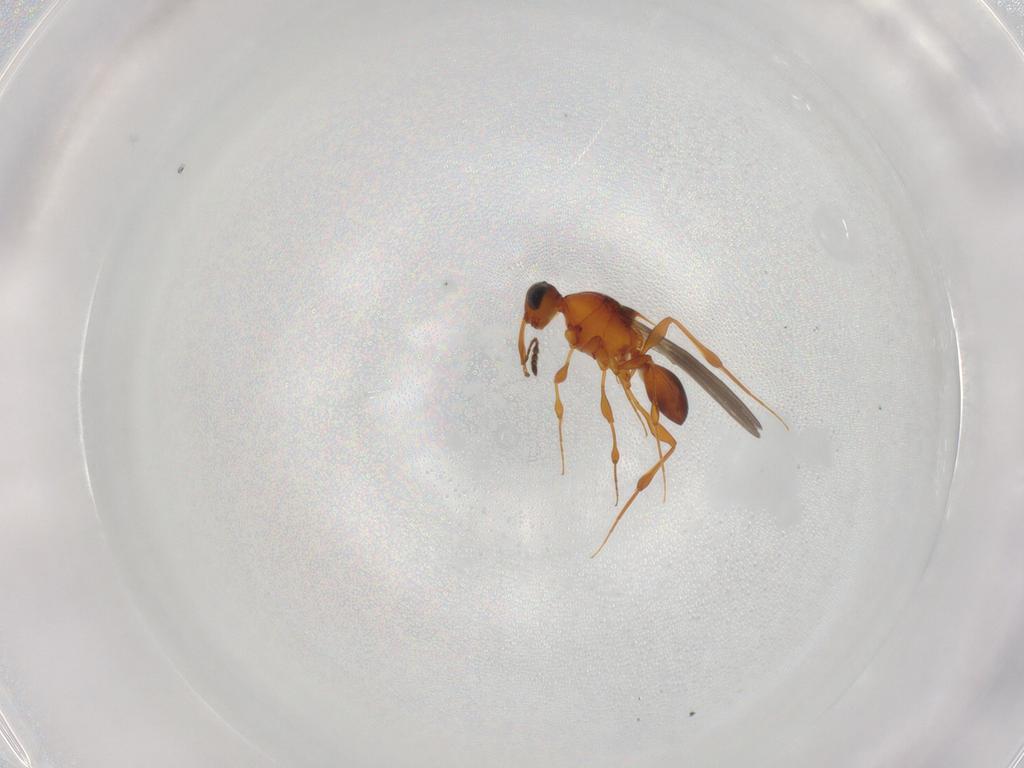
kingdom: Animalia
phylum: Arthropoda
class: Insecta
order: Hymenoptera
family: Platygastridae
